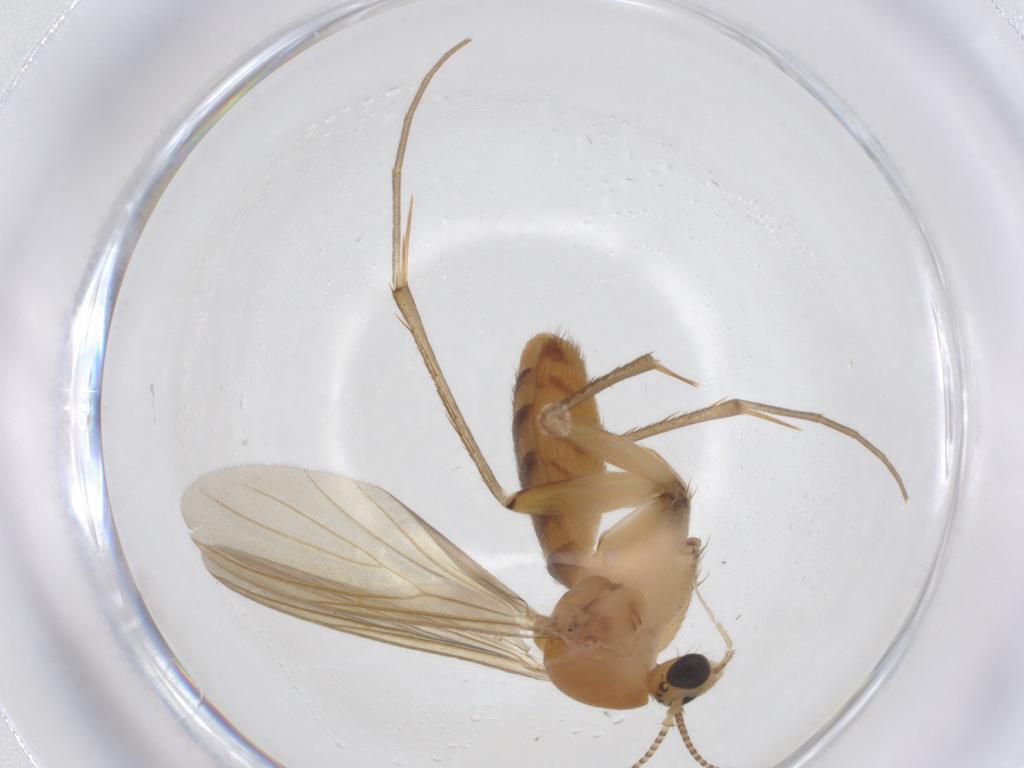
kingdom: Animalia
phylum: Arthropoda
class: Insecta
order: Diptera
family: Mycetophilidae
